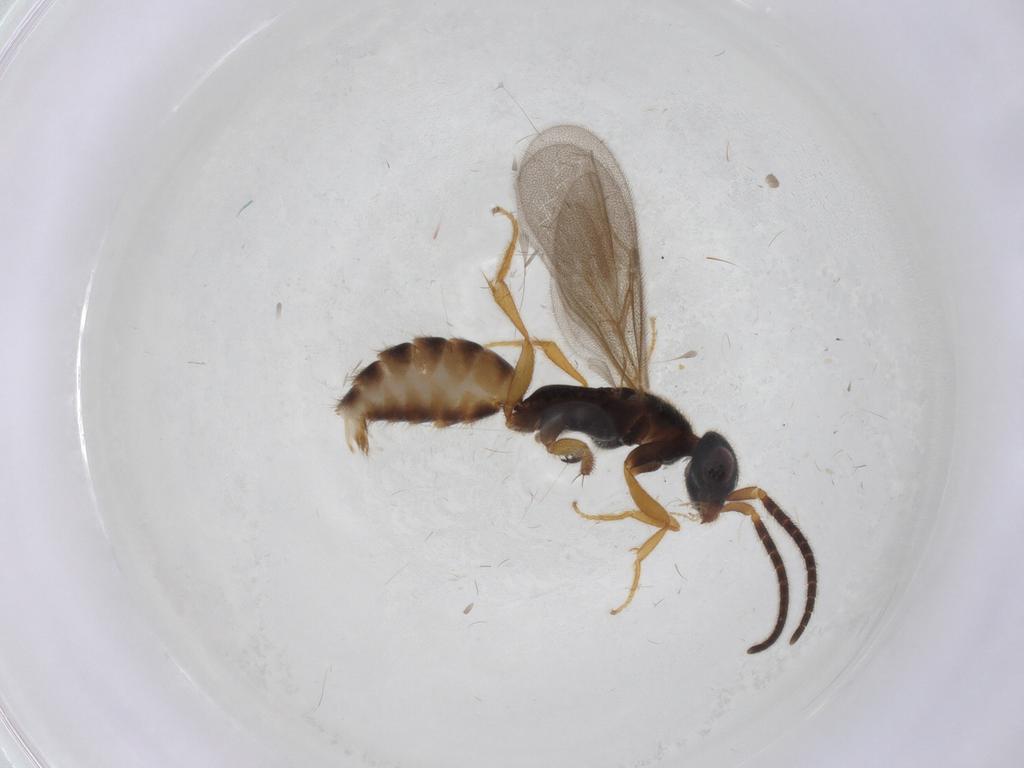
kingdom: Animalia
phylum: Arthropoda
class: Insecta
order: Hymenoptera
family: Bethylidae
